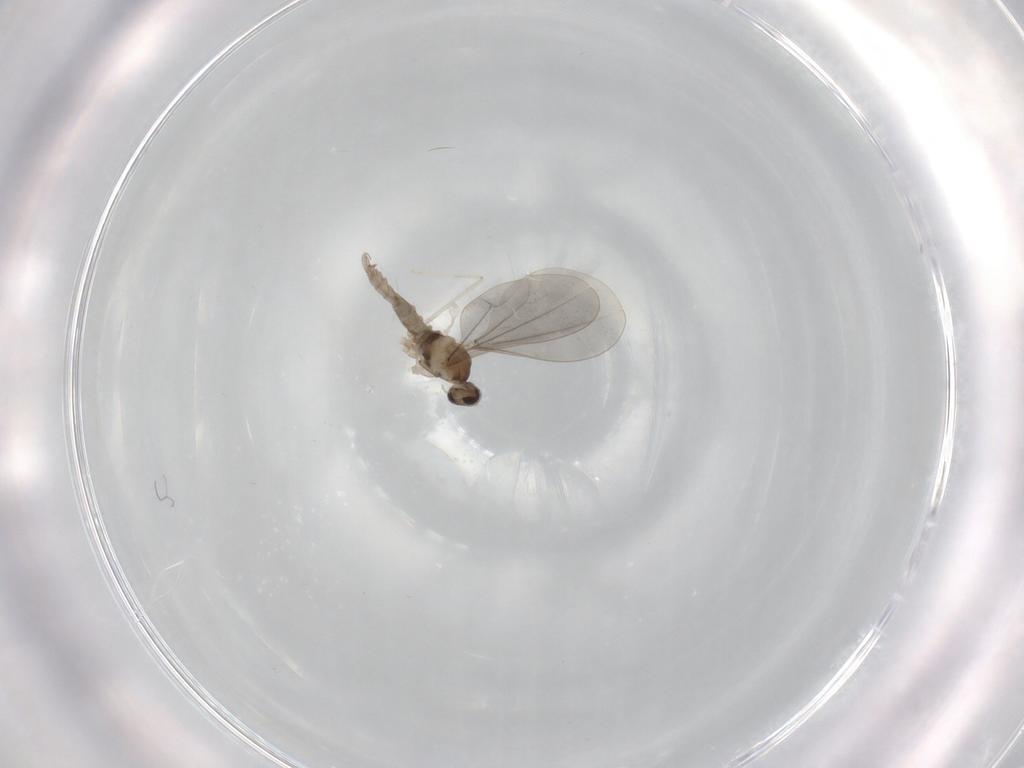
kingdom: Animalia
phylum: Arthropoda
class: Insecta
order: Diptera
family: Cecidomyiidae
